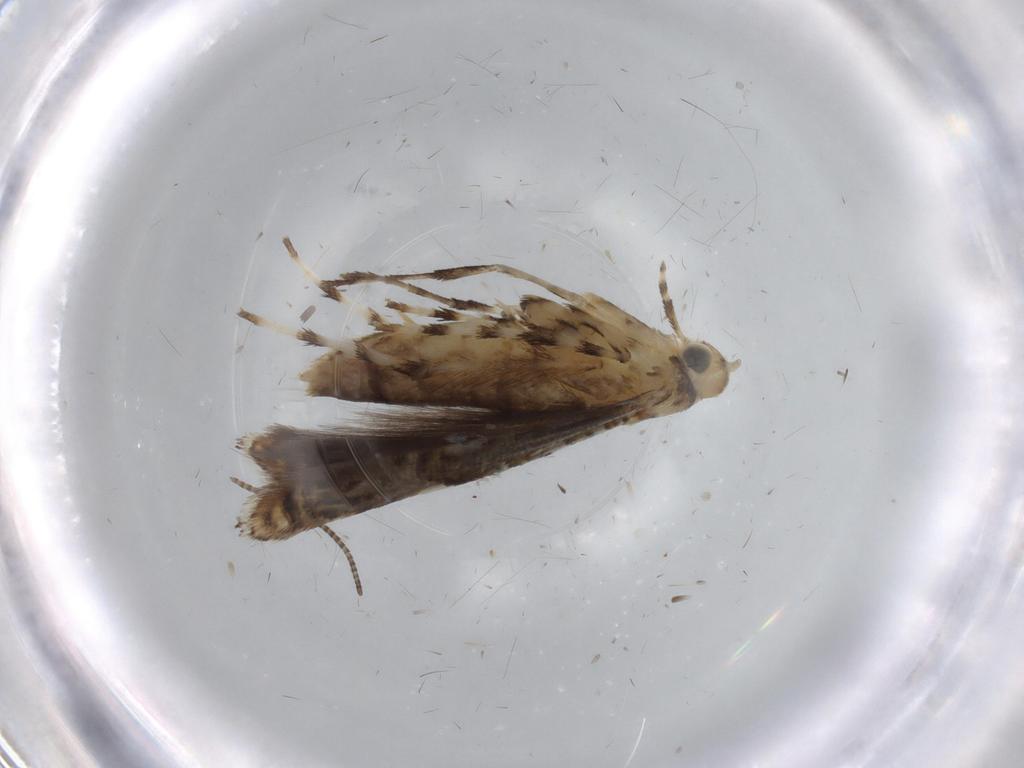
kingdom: Animalia
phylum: Arthropoda
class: Insecta
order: Lepidoptera
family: Gracillariidae
